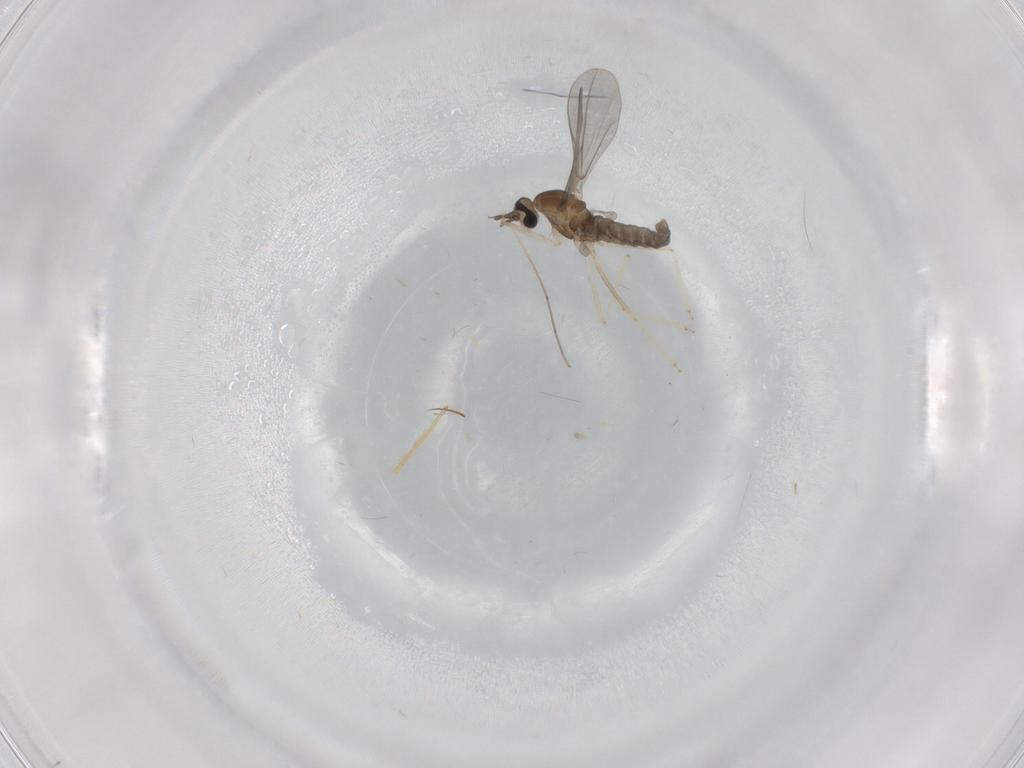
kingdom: Animalia
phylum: Arthropoda
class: Insecta
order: Diptera
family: Cecidomyiidae
